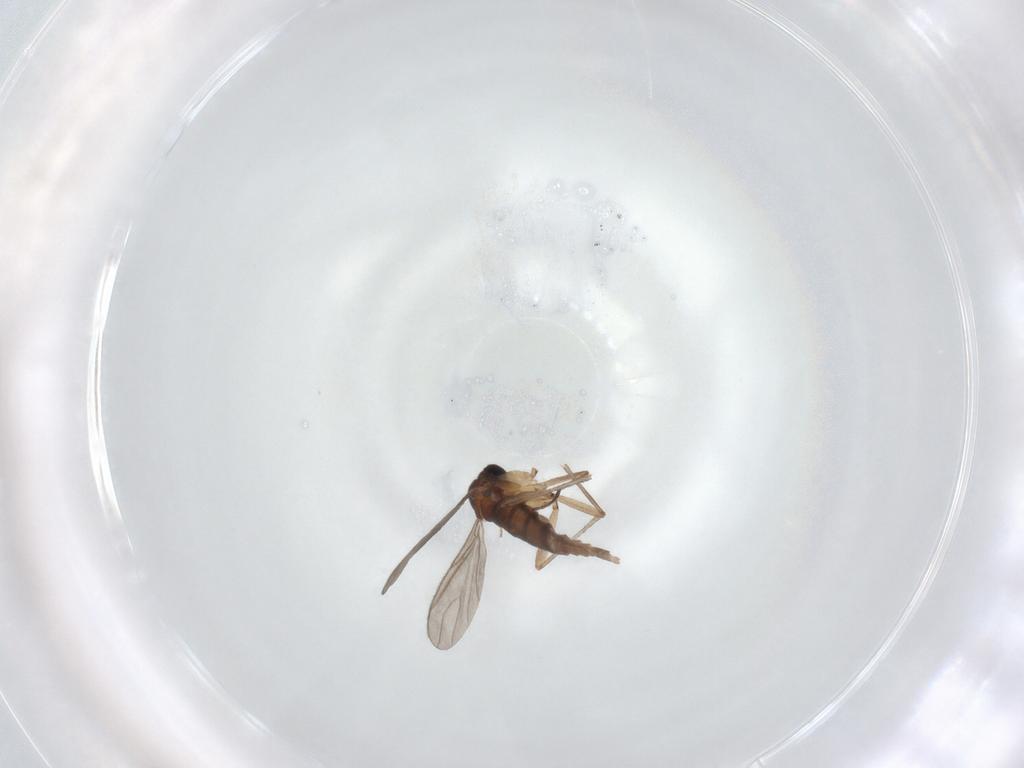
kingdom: Animalia
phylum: Arthropoda
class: Insecta
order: Diptera
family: Sciaridae
